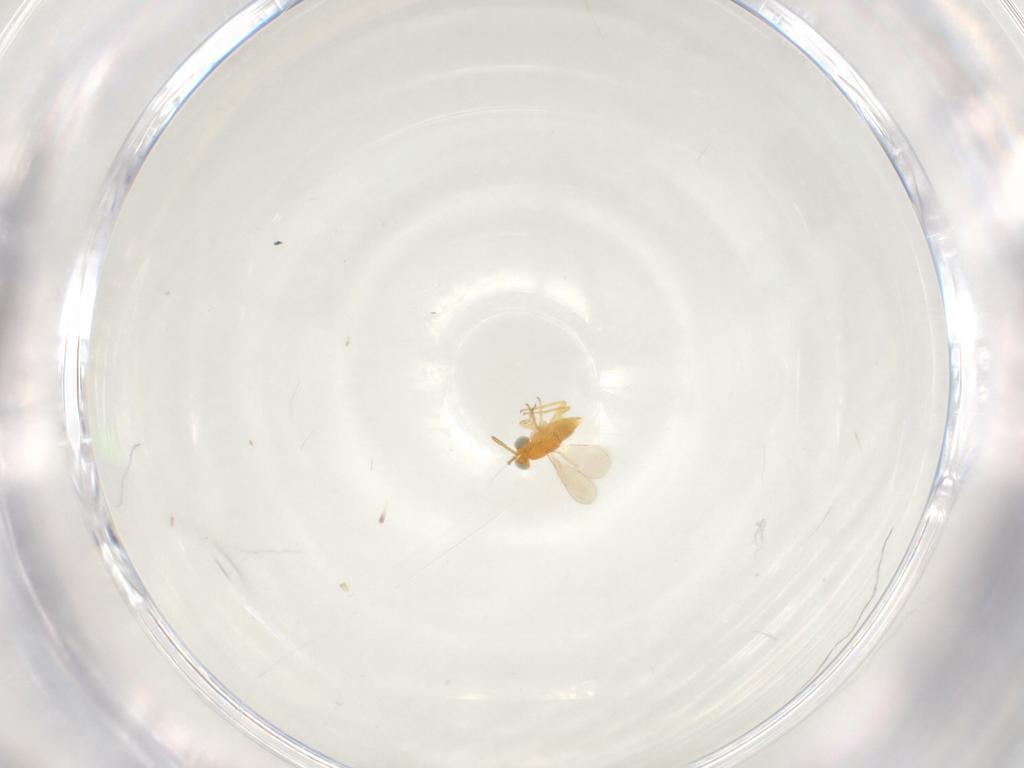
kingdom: Animalia
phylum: Arthropoda
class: Insecta
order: Hymenoptera
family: Aphelinidae
